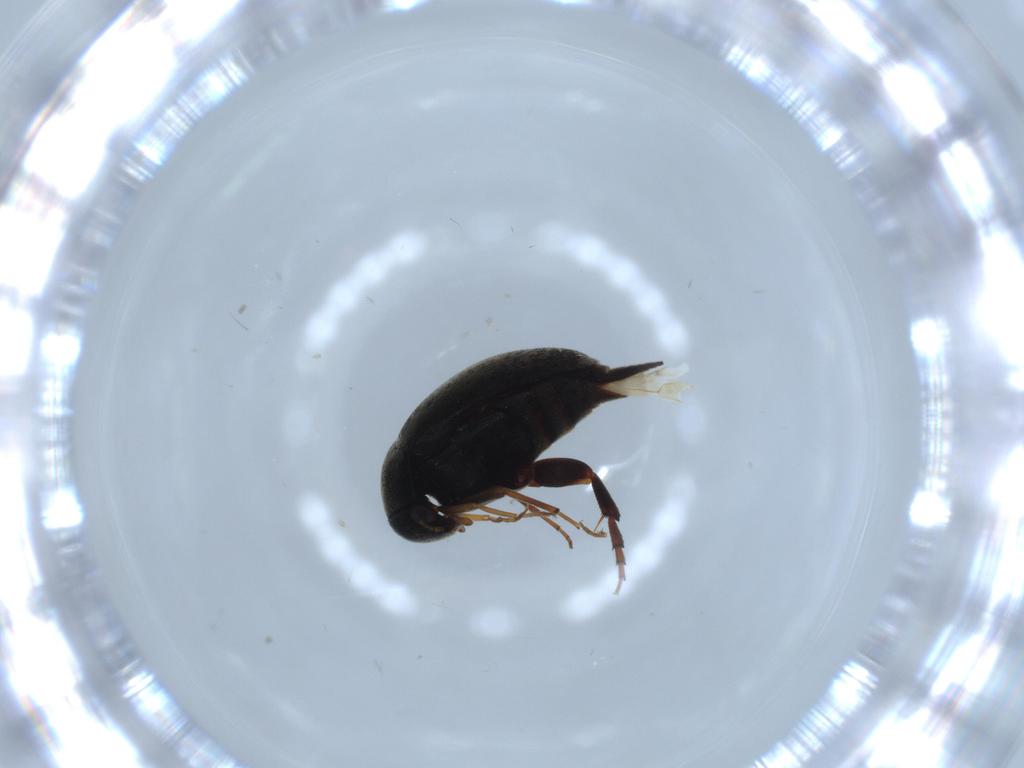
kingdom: Animalia
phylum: Arthropoda
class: Insecta
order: Coleoptera
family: Mordellidae
